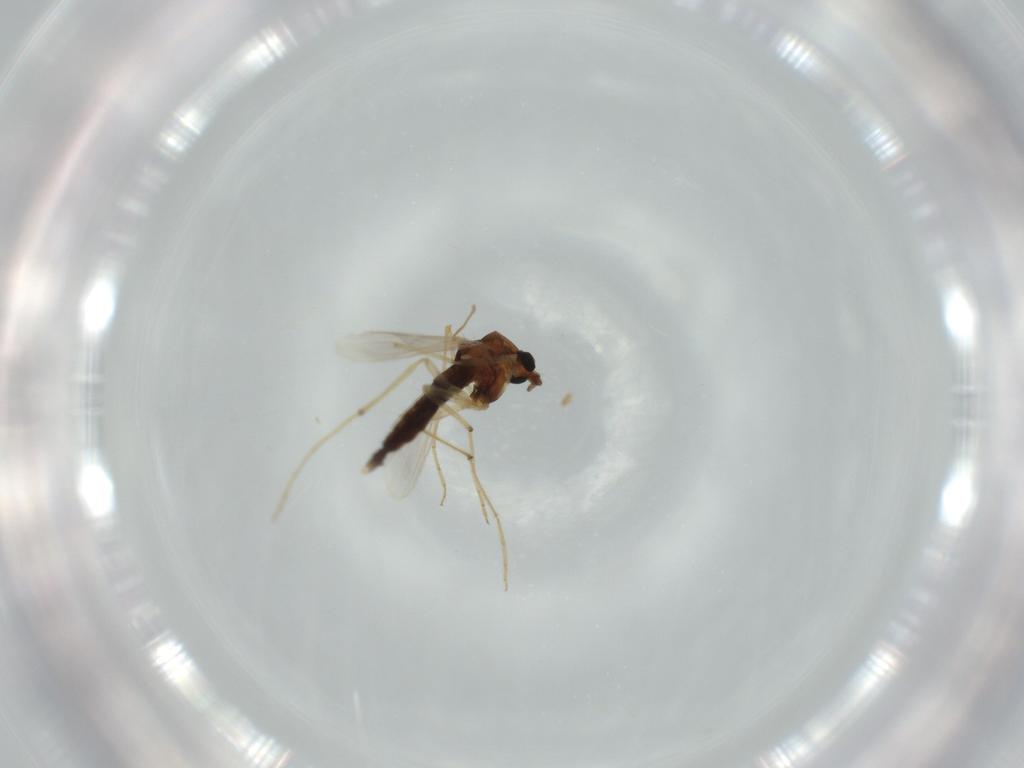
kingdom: Animalia
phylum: Arthropoda
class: Insecta
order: Diptera
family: Chironomidae
